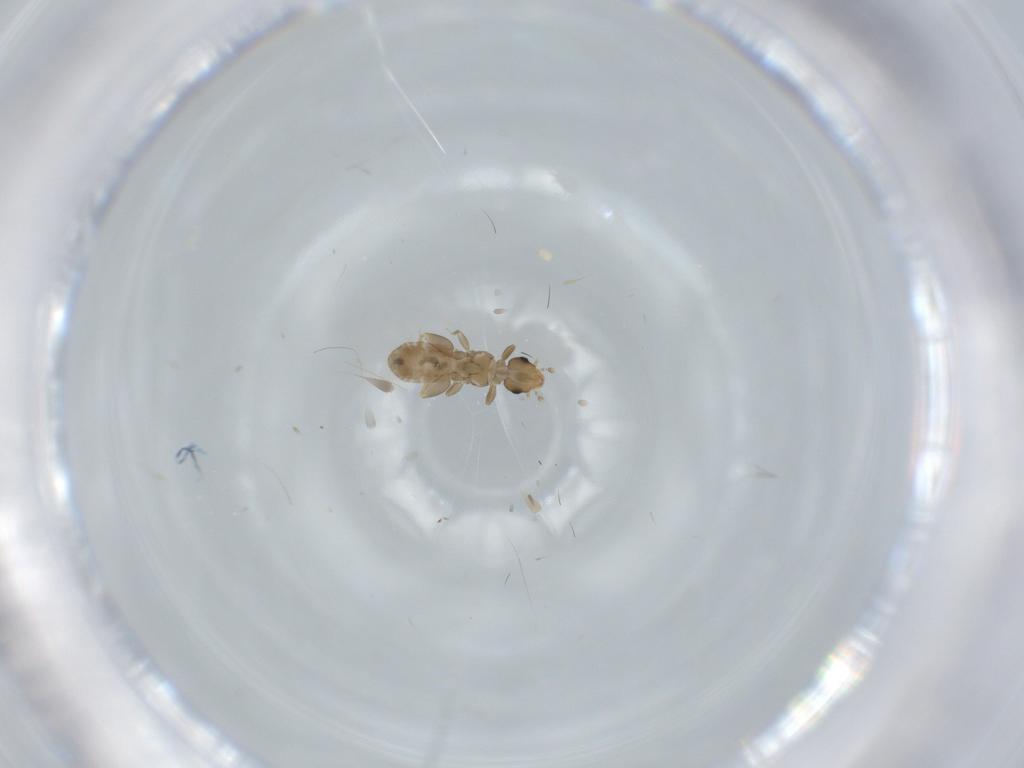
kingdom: Animalia
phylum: Arthropoda
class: Insecta
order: Psocodea
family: Liposcelididae
